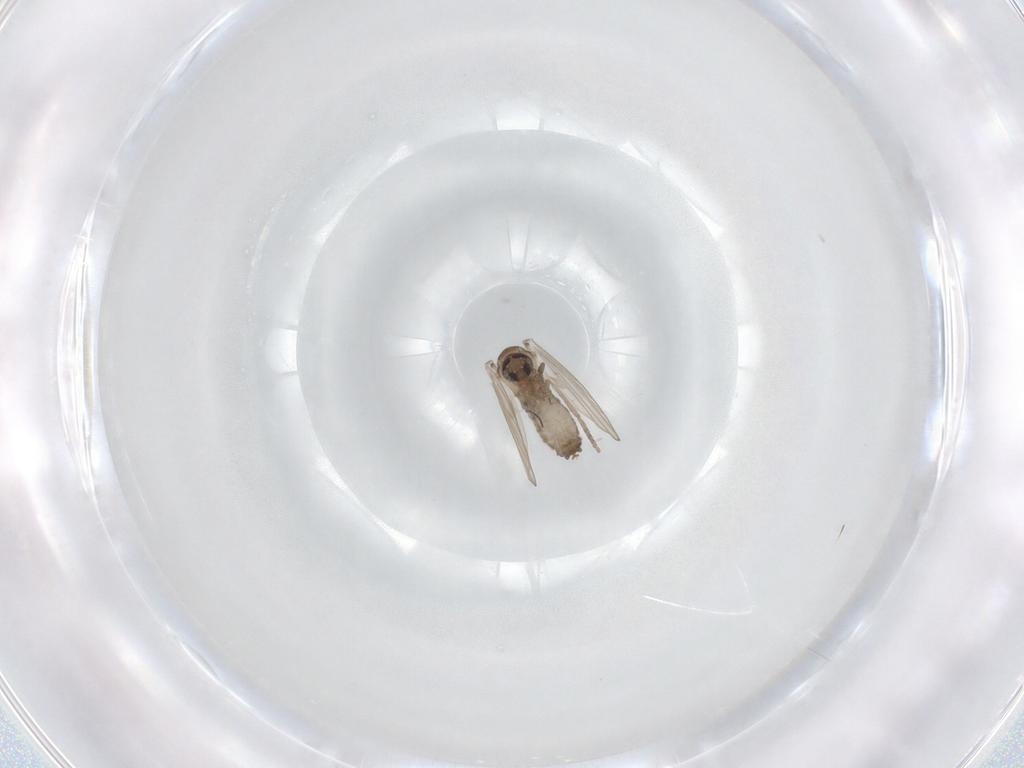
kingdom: Animalia
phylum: Arthropoda
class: Insecta
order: Diptera
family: Psychodidae
